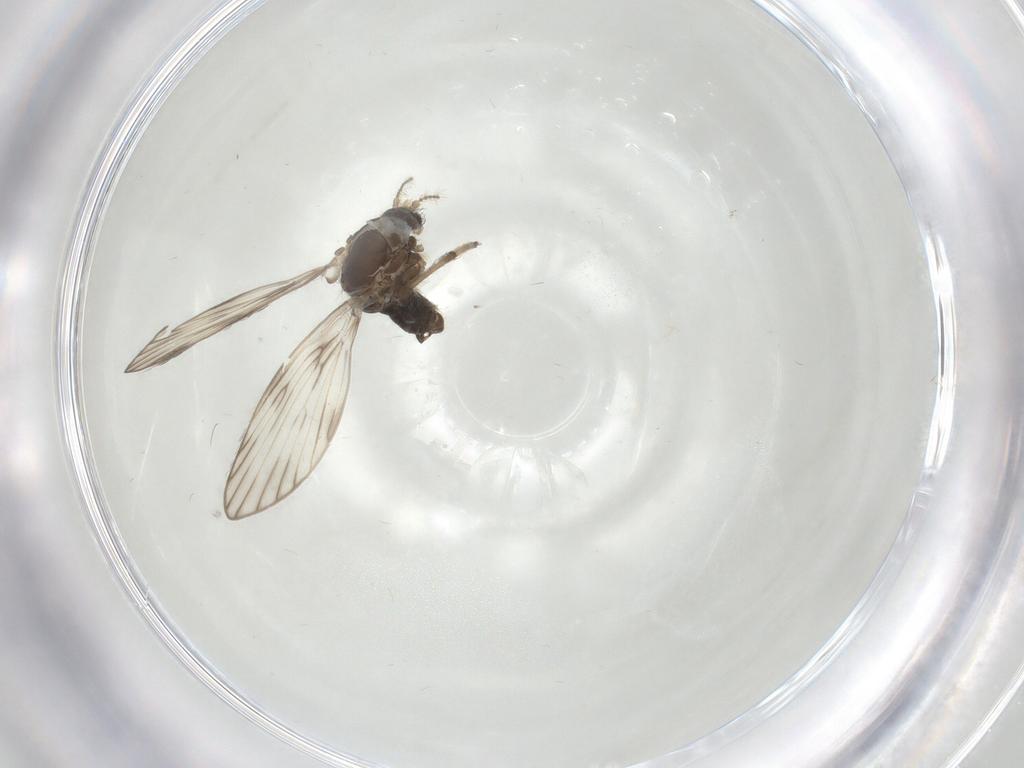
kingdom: Animalia
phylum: Arthropoda
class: Insecta
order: Diptera
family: Psychodidae
